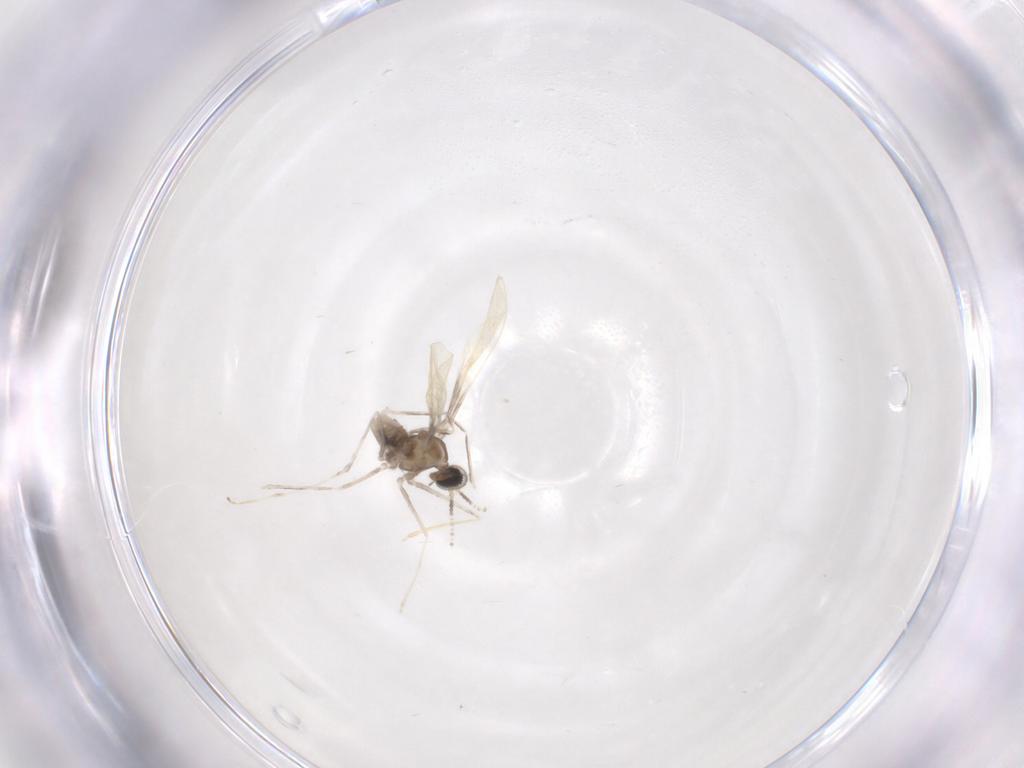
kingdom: Animalia
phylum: Arthropoda
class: Insecta
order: Diptera
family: Cecidomyiidae
